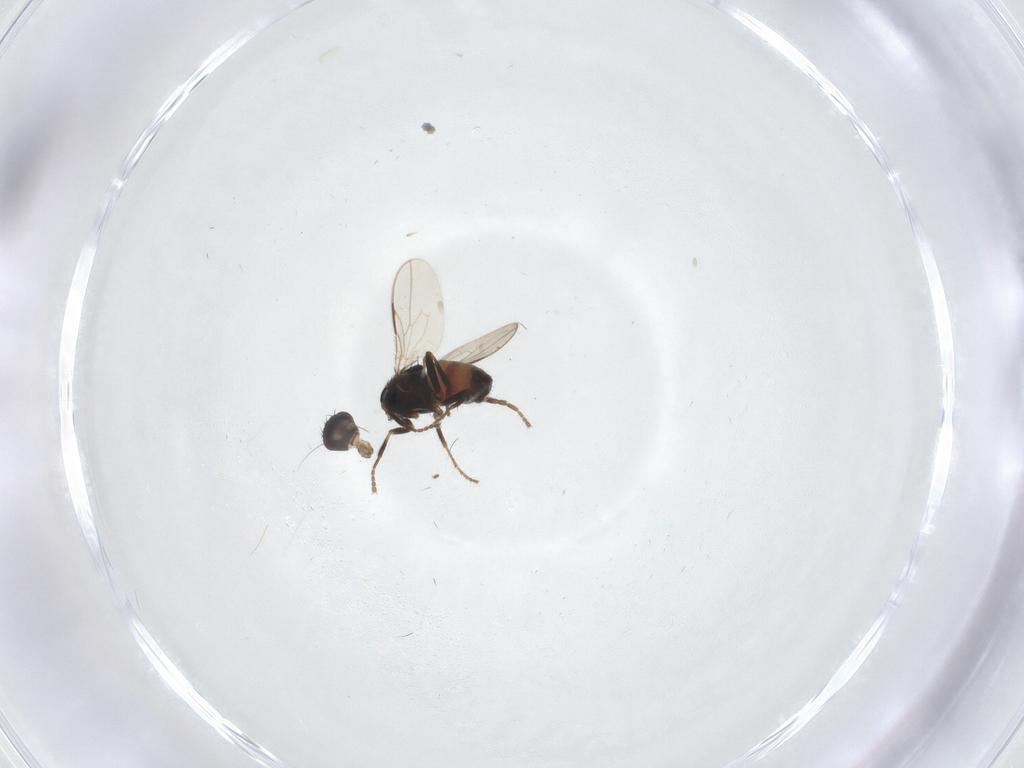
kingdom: Animalia
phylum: Arthropoda
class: Insecta
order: Diptera
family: Sphaeroceridae
